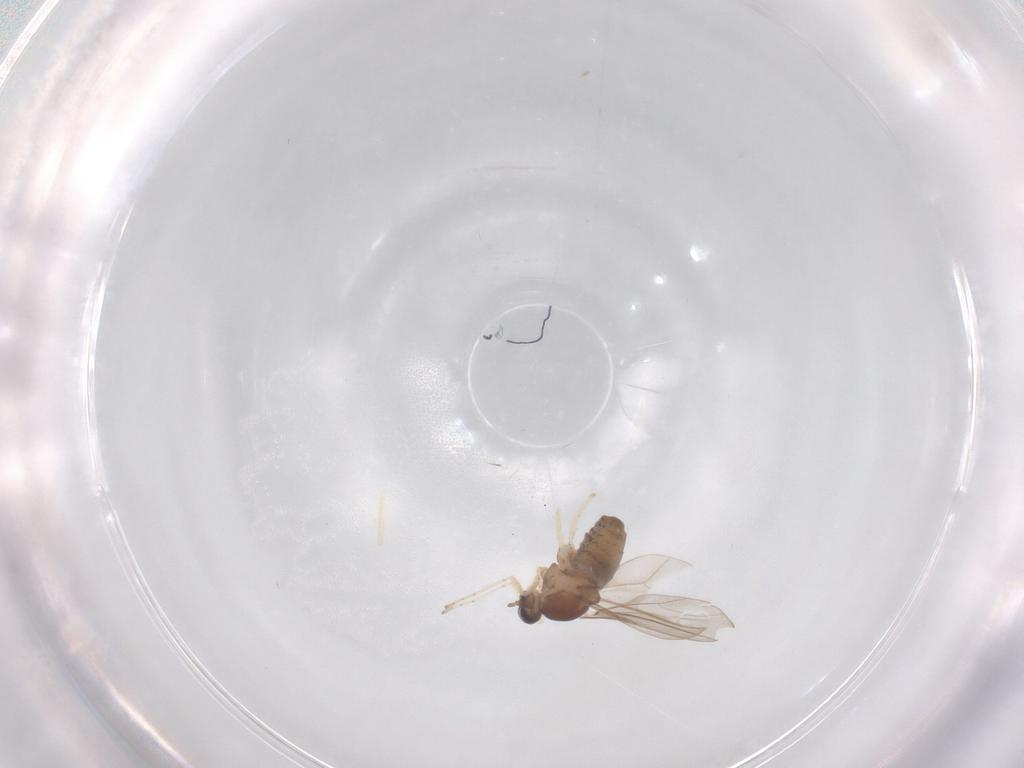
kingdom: Animalia
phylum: Arthropoda
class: Insecta
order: Diptera
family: Cecidomyiidae
